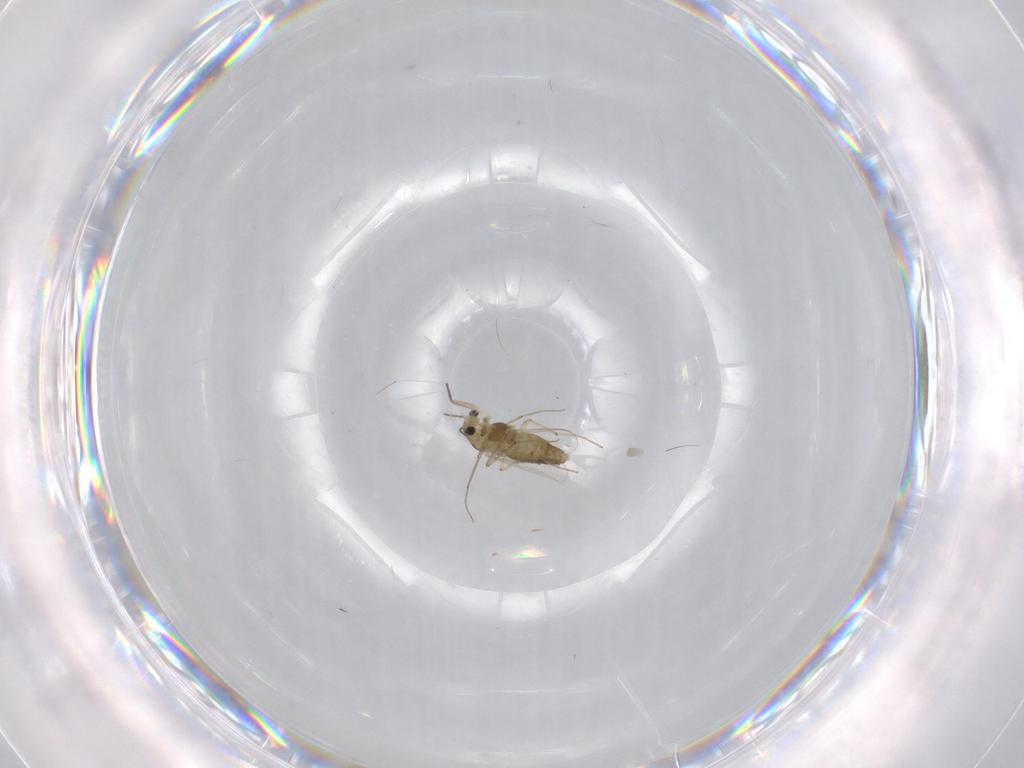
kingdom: Animalia
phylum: Arthropoda
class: Insecta
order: Diptera
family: Chironomidae
